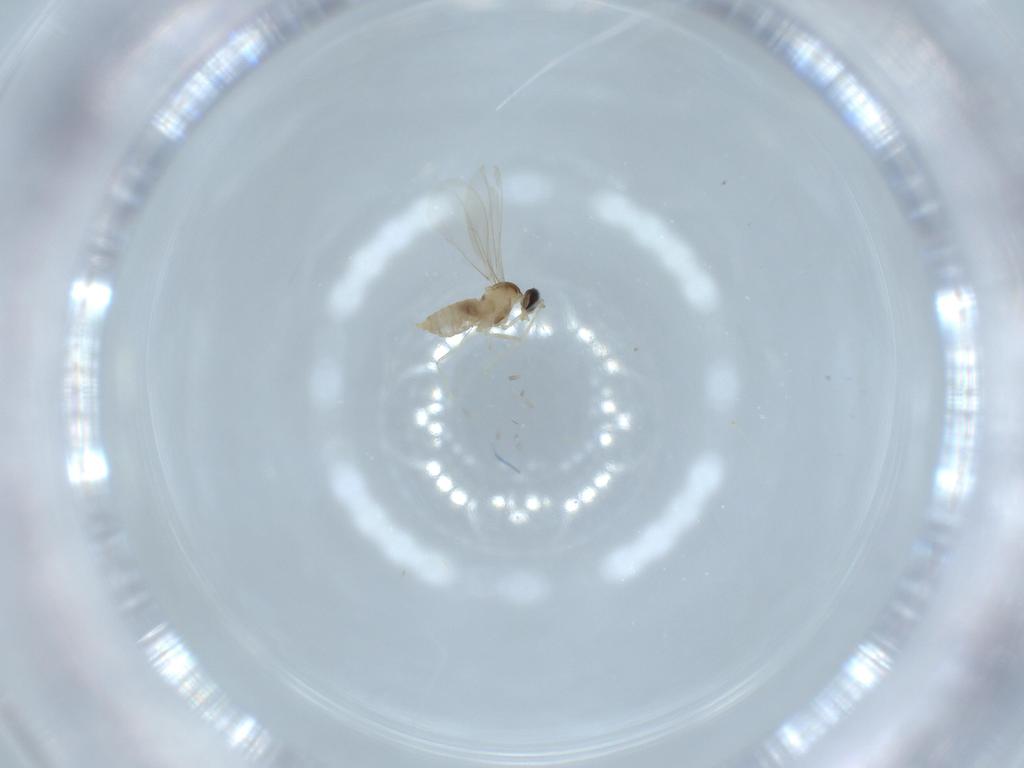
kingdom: Animalia
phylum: Arthropoda
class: Insecta
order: Diptera
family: Cecidomyiidae
